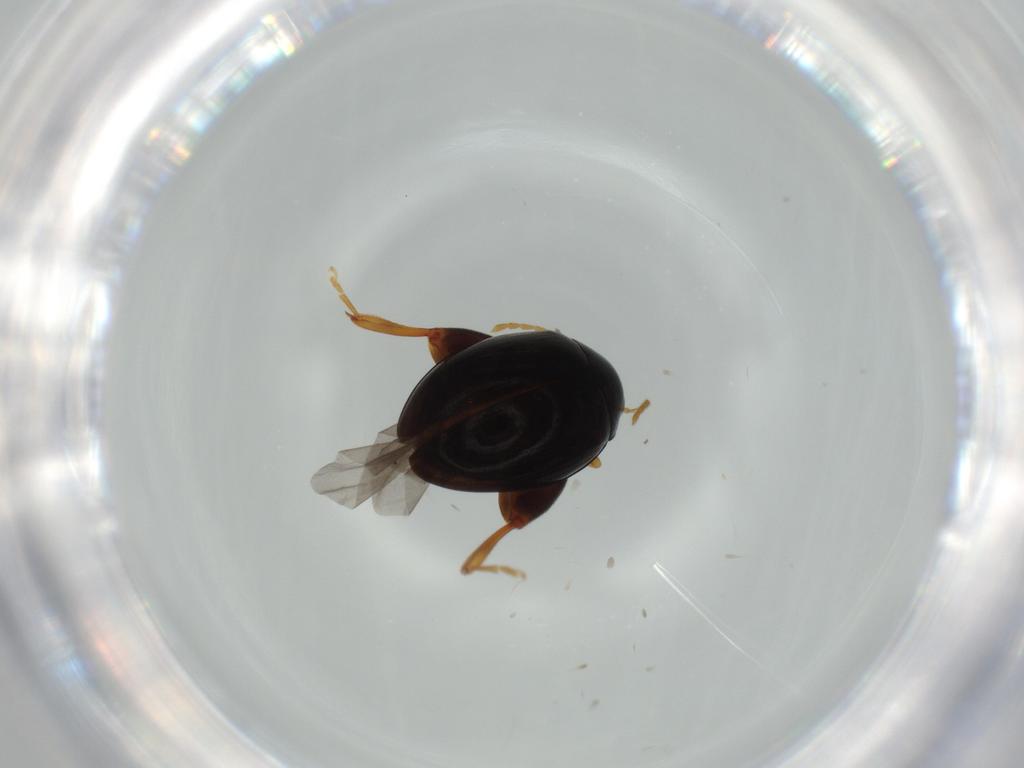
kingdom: Animalia
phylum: Arthropoda
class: Insecta
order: Coleoptera
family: Chrysomelidae
